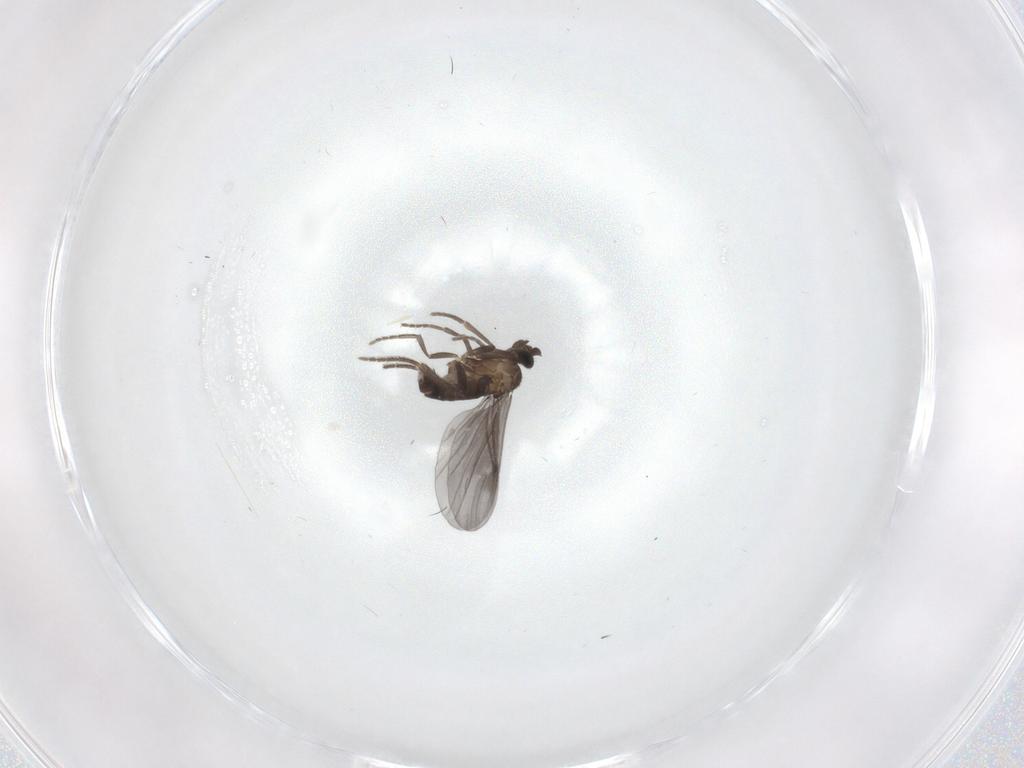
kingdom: Animalia
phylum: Arthropoda
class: Insecta
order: Diptera
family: Phoridae
